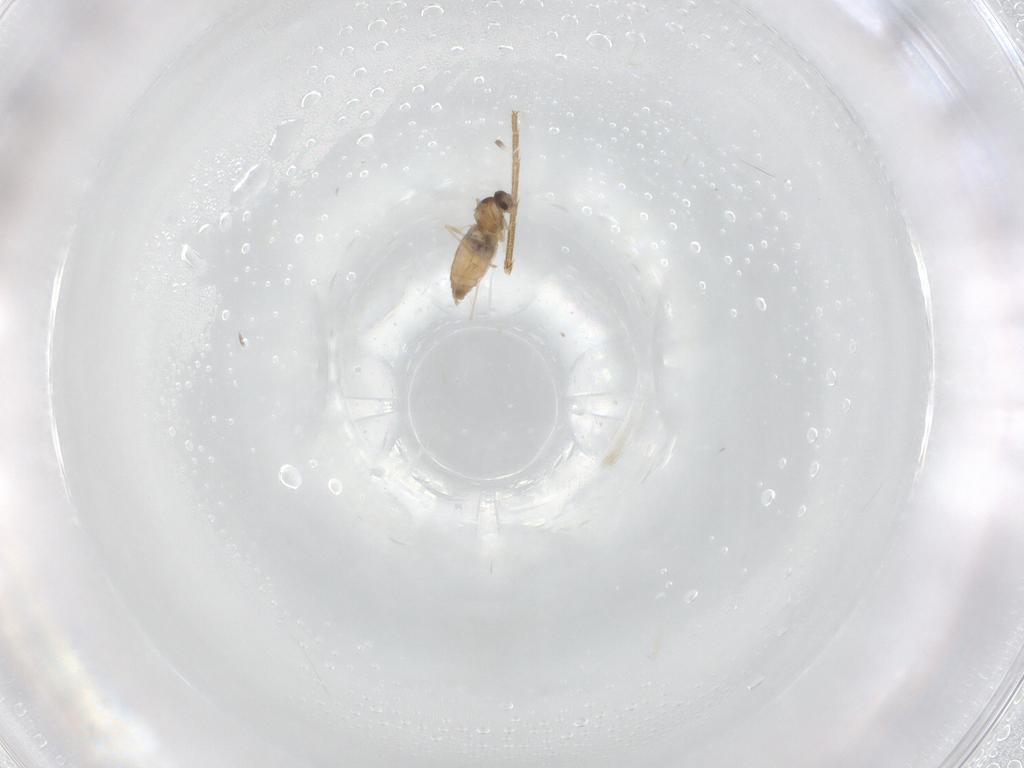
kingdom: Animalia
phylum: Arthropoda
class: Insecta
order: Diptera
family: Cecidomyiidae
